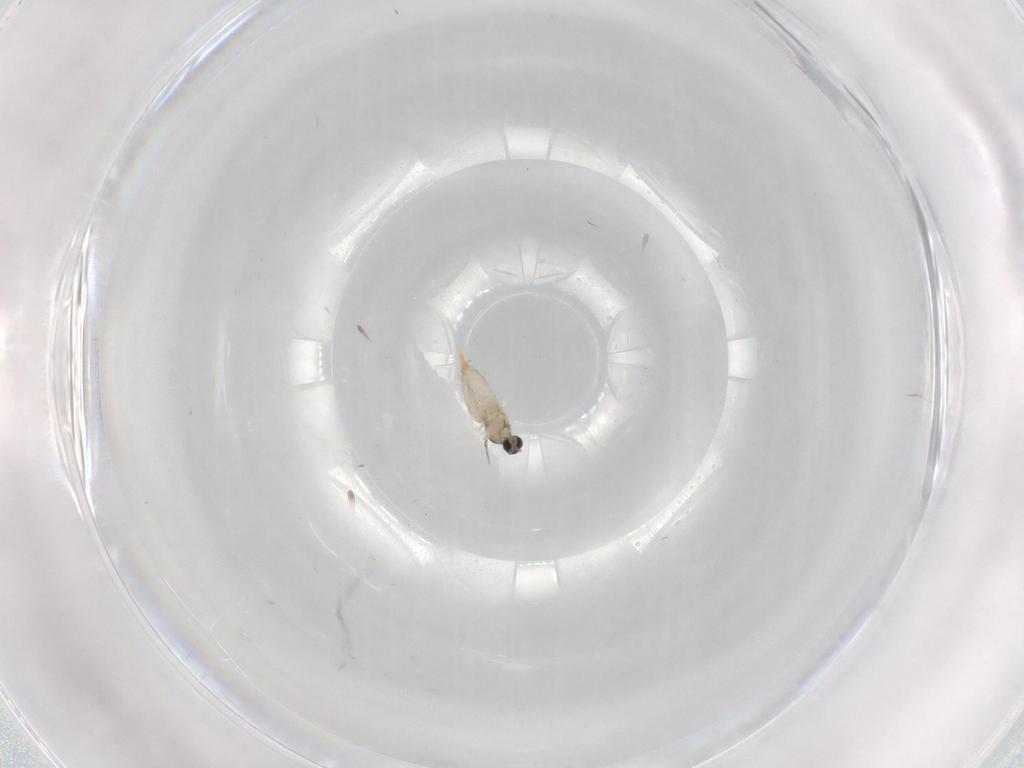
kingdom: Animalia
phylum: Arthropoda
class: Insecta
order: Diptera
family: Cecidomyiidae
